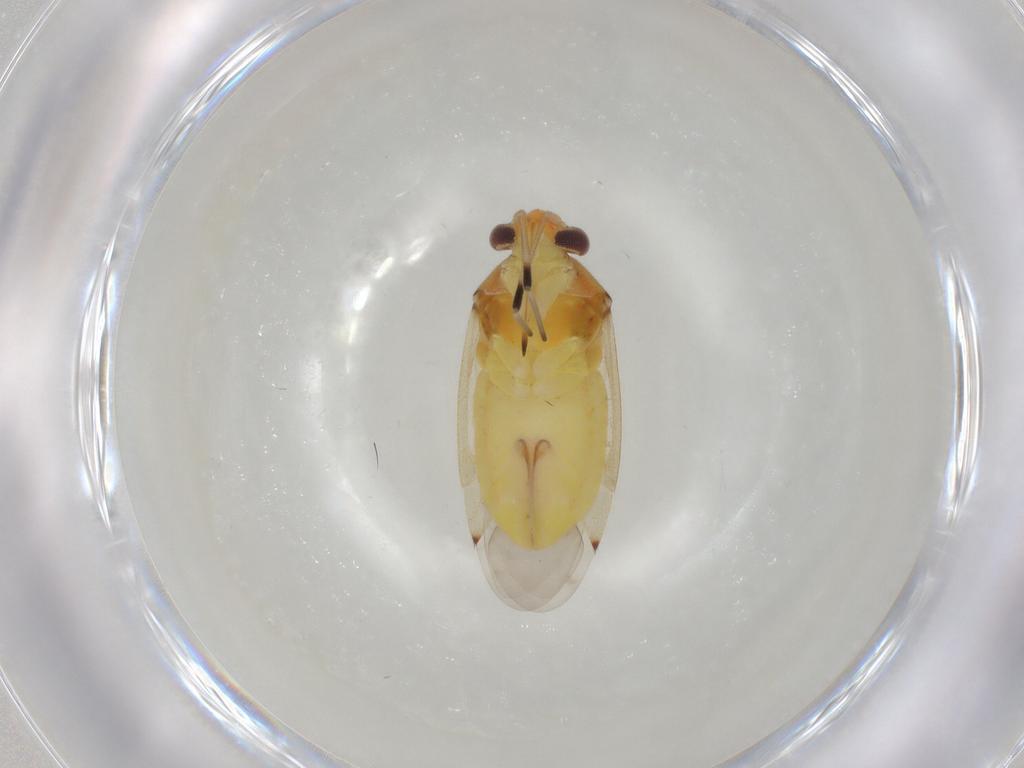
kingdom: Animalia
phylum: Arthropoda
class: Insecta
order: Hemiptera
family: Miridae
